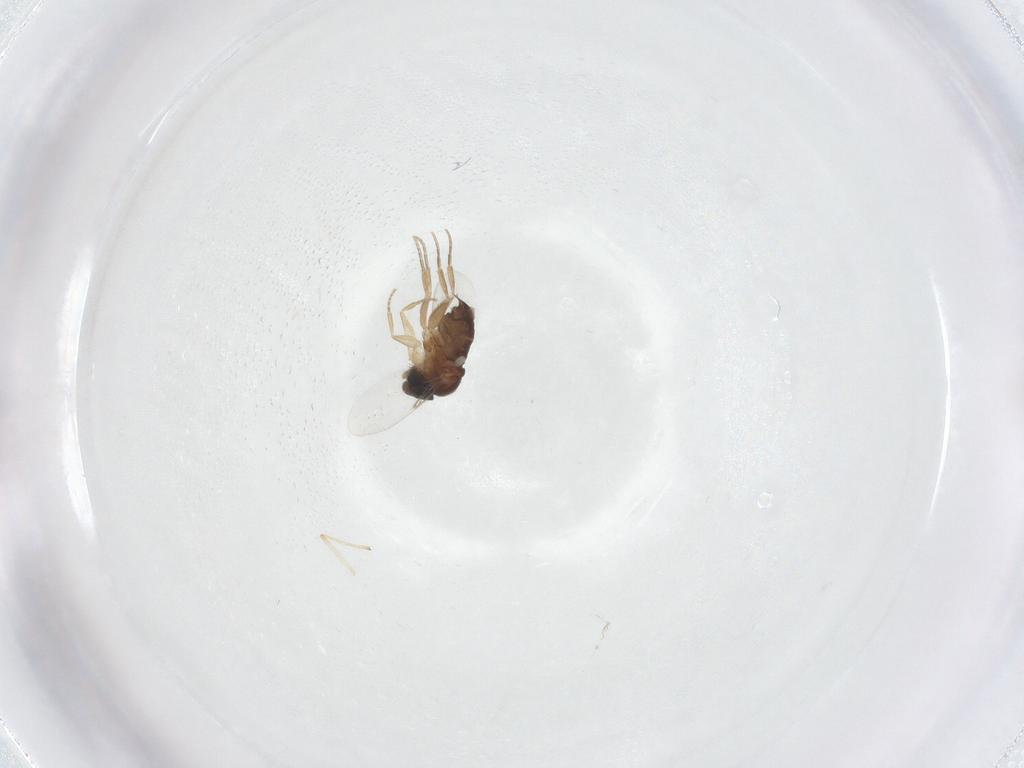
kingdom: Animalia
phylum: Arthropoda
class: Insecta
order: Diptera
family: Phoridae
